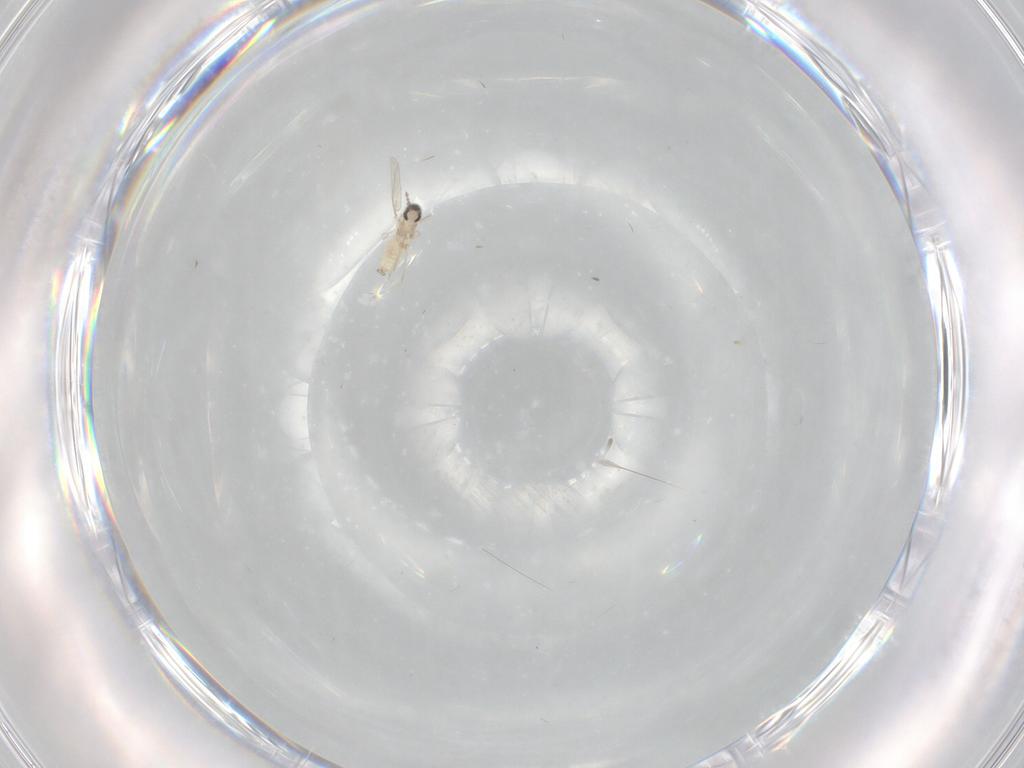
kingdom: Animalia
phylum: Arthropoda
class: Insecta
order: Diptera
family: Cecidomyiidae
